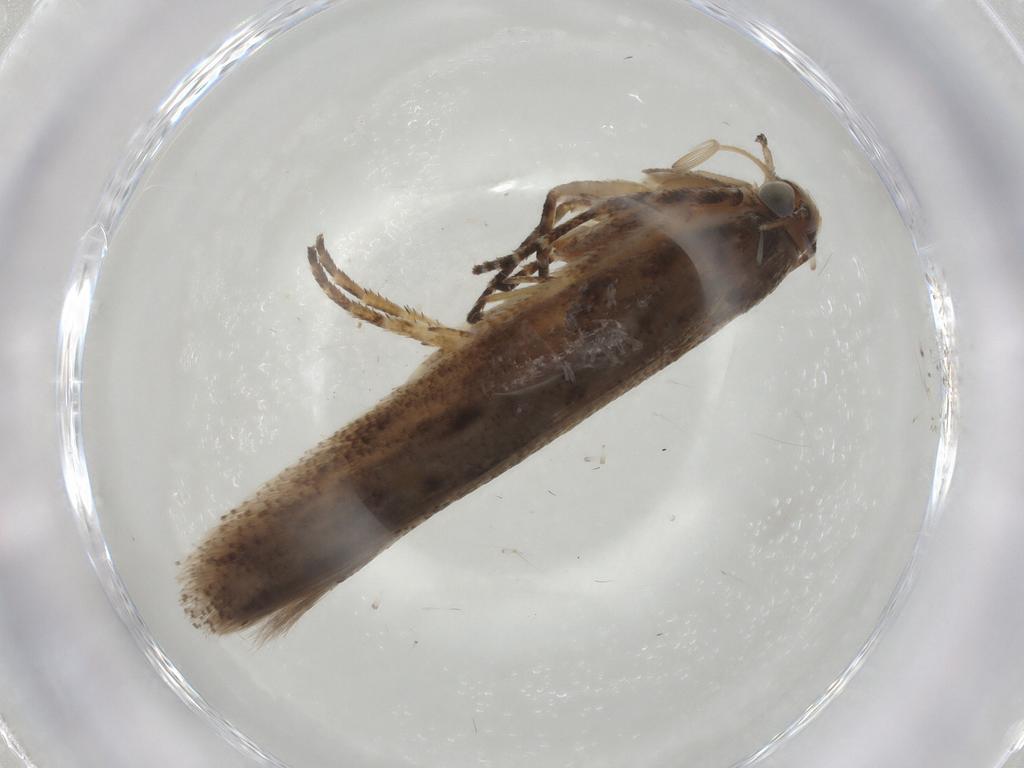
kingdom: Animalia
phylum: Arthropoda
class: Insecta
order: Lepidoptera
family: Gelechiidae
